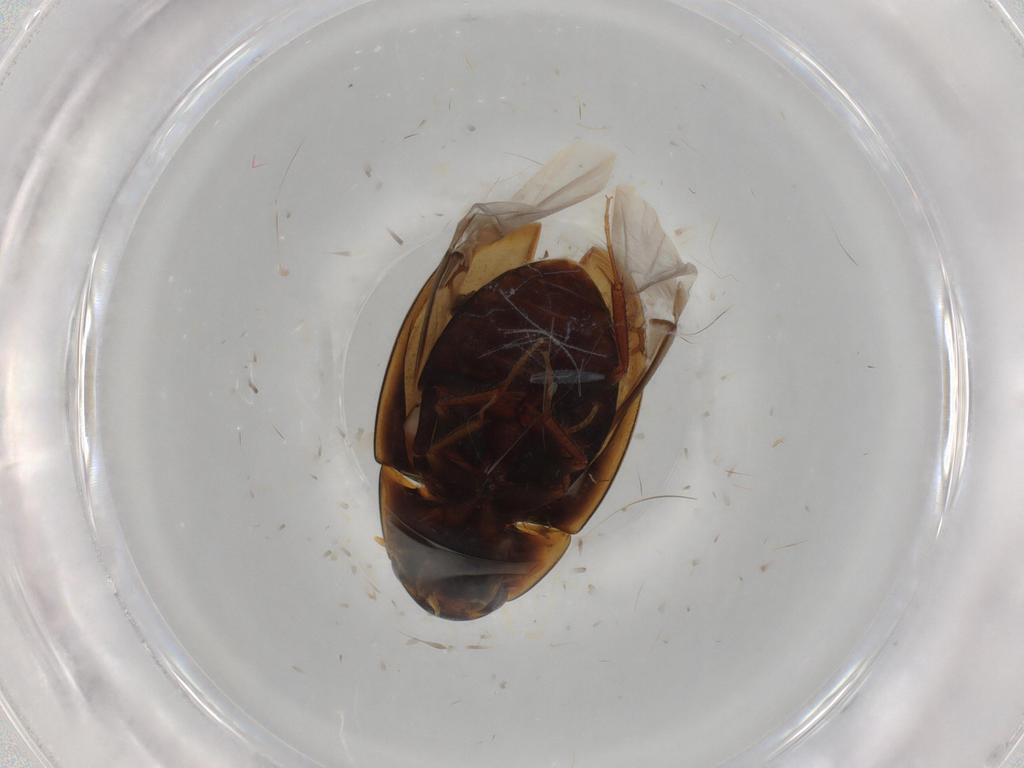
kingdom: Animalia
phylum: Arthropoda
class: Insecta
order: Coleoptera
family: Hydrophilidae
